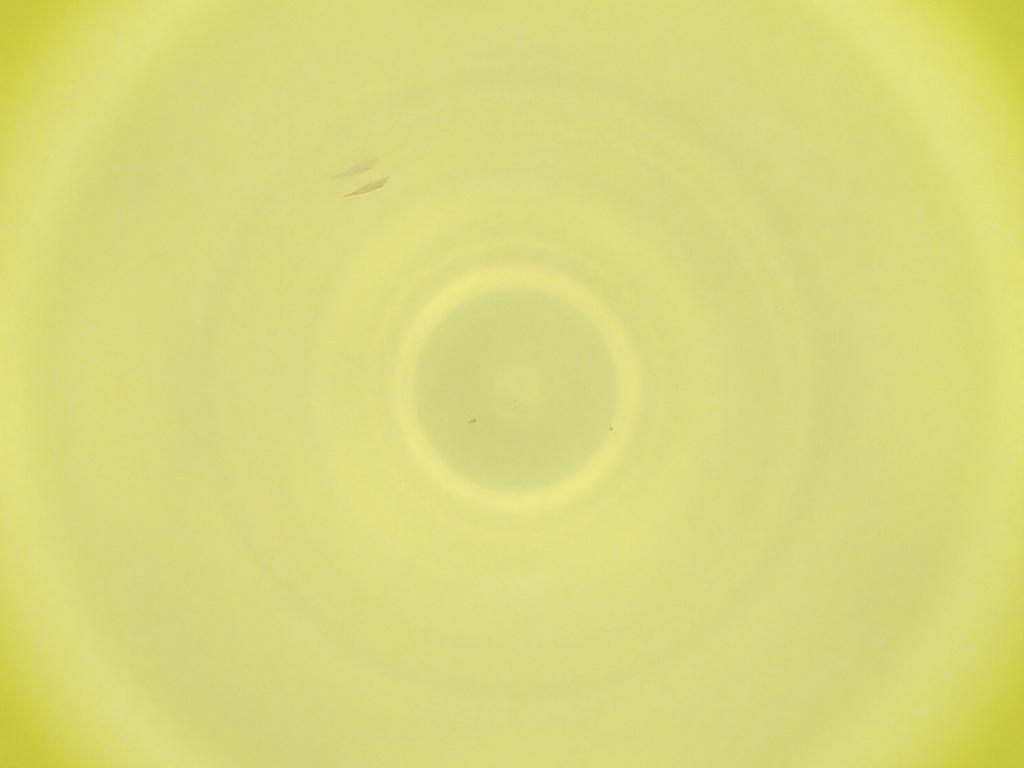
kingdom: Animalia
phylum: Arthropoda
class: Insecta
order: Diptera
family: Cecidomyiidae
